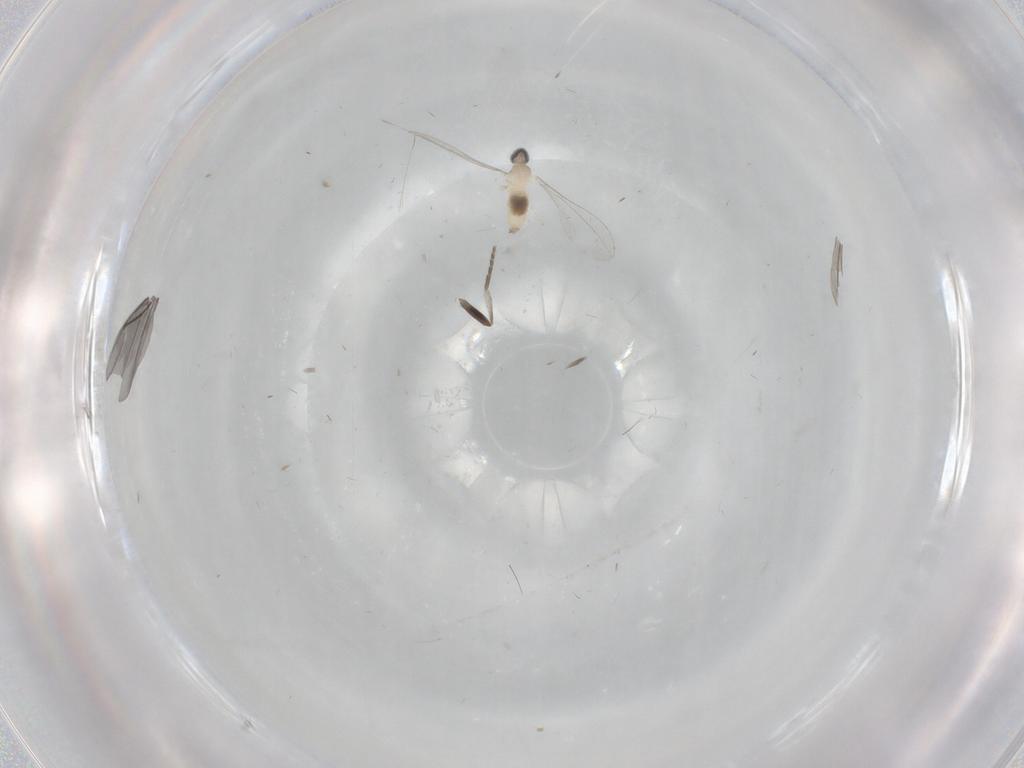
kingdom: Animalia
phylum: Arthropoda
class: Insecta
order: Diptera
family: Cecidomyiidae
